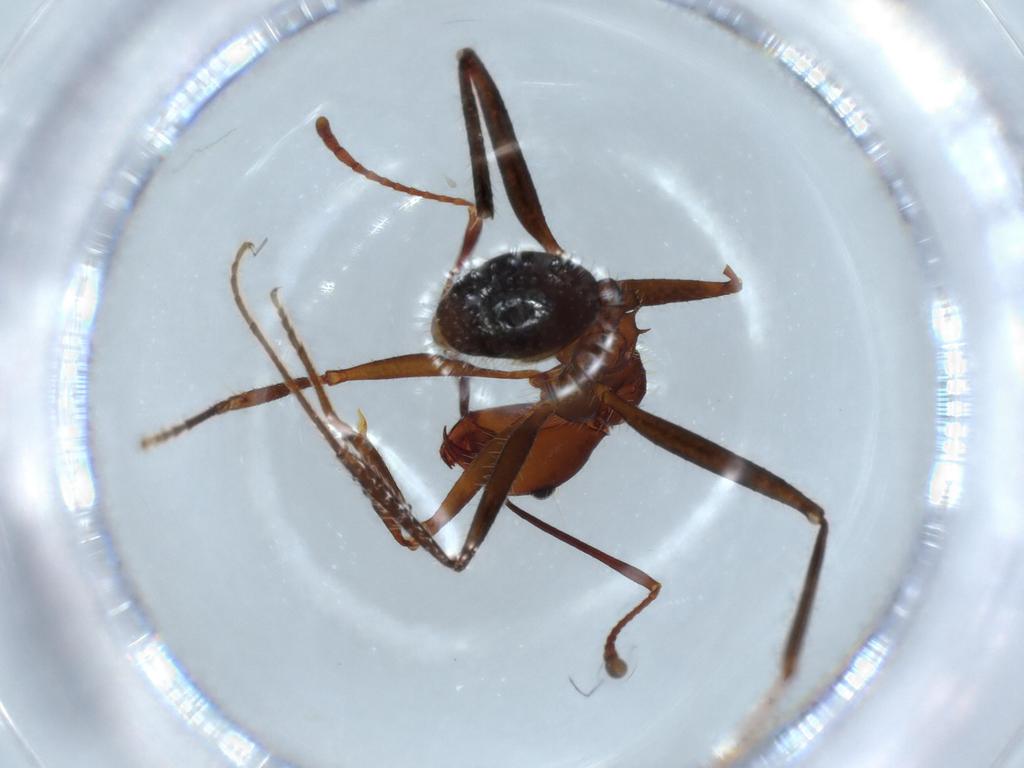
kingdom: Animalia
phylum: Arthropoda
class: Insecta
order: Hymenoptera
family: Formicidae
